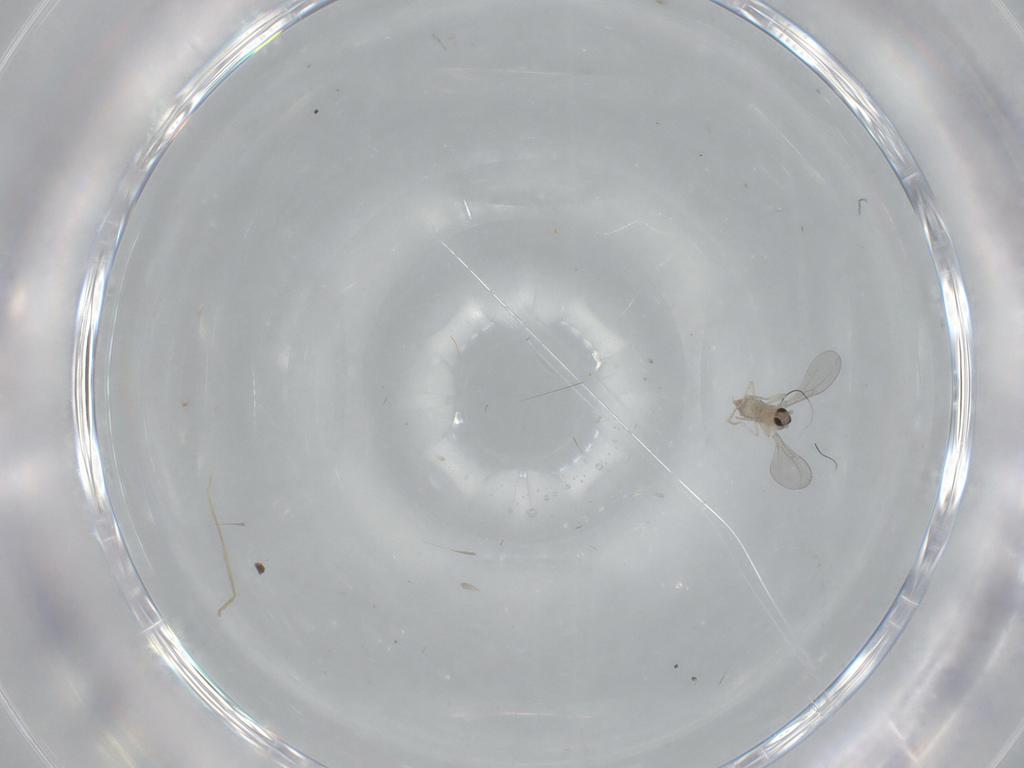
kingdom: Animalia
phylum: Arthropoda
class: Insecta
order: Diptera
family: Cecidomyiidae
